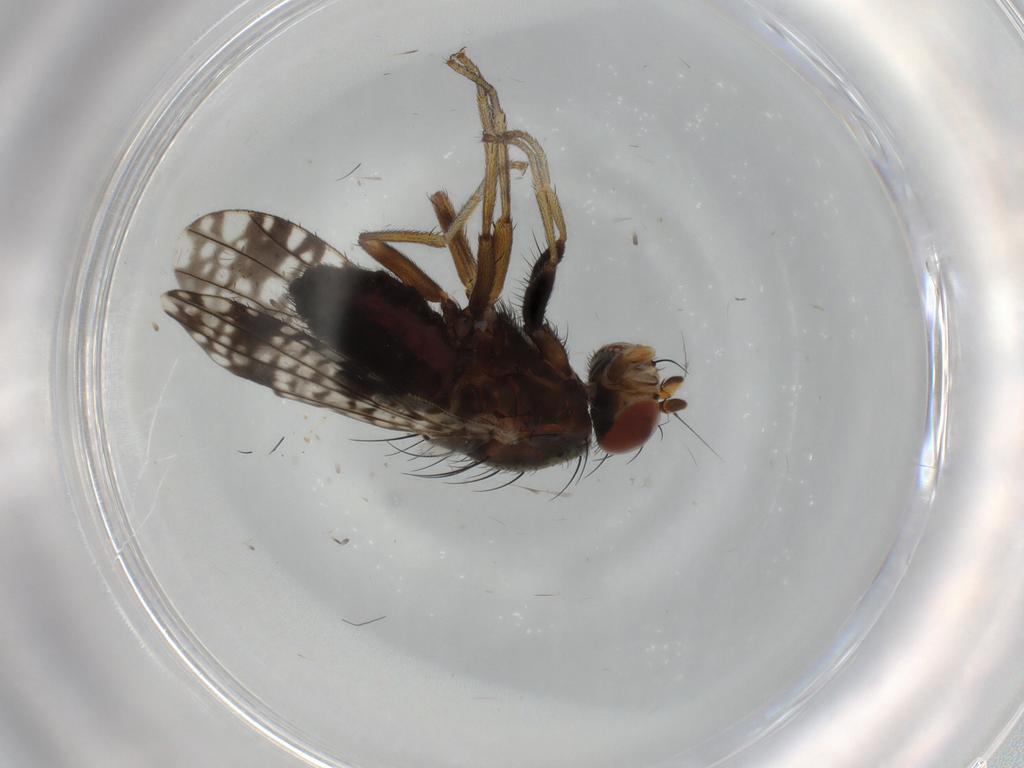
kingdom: Animalia
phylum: Arthropoda
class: Insecta
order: Diptera
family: Tephritidae
